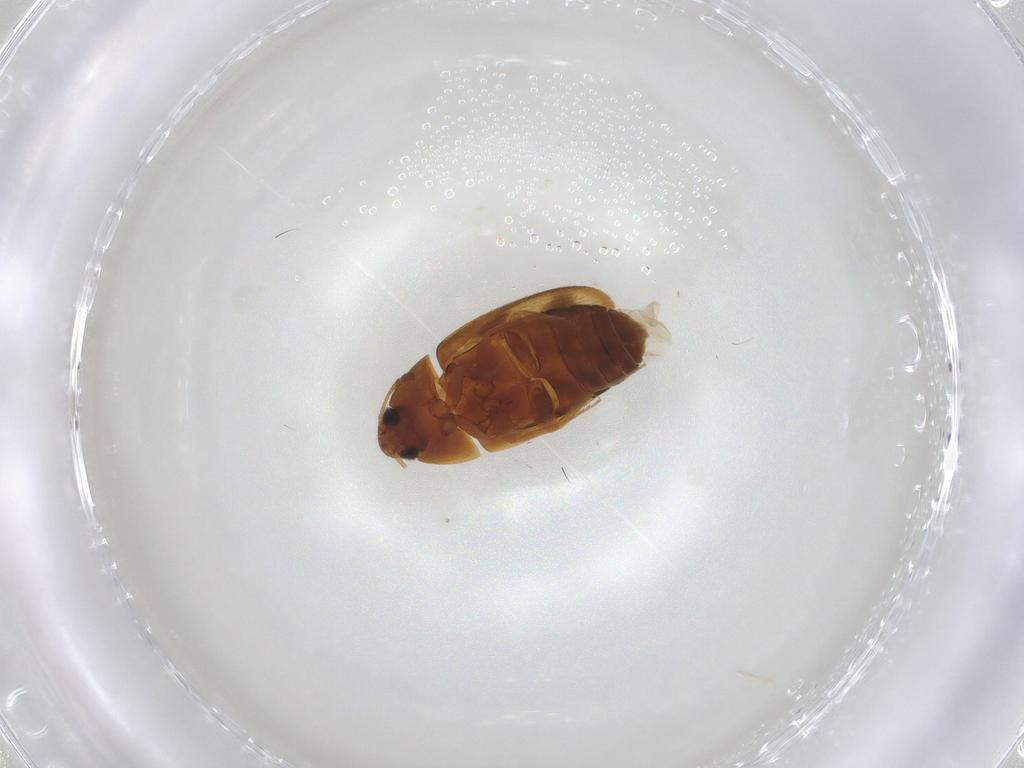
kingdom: Animalia
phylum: Arthropoda
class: Insecta
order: Coleoptera
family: Mycetophagidae
